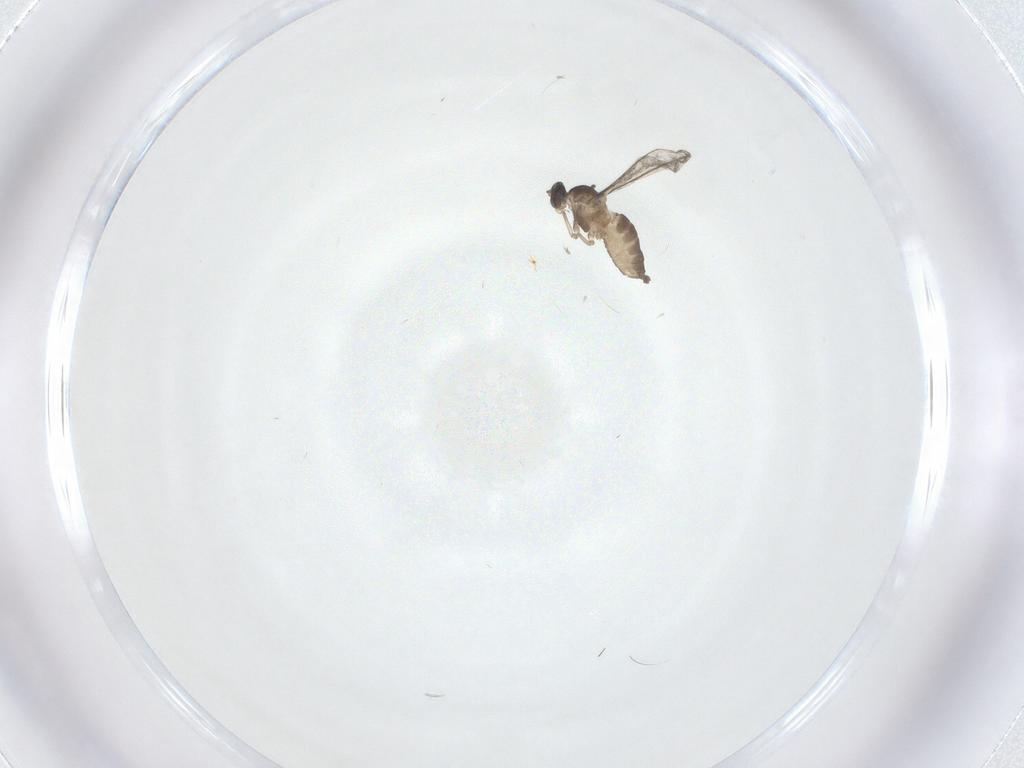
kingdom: Animalia
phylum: Arthropoda
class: Insecta
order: Diptera
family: Cecidomyiidae
